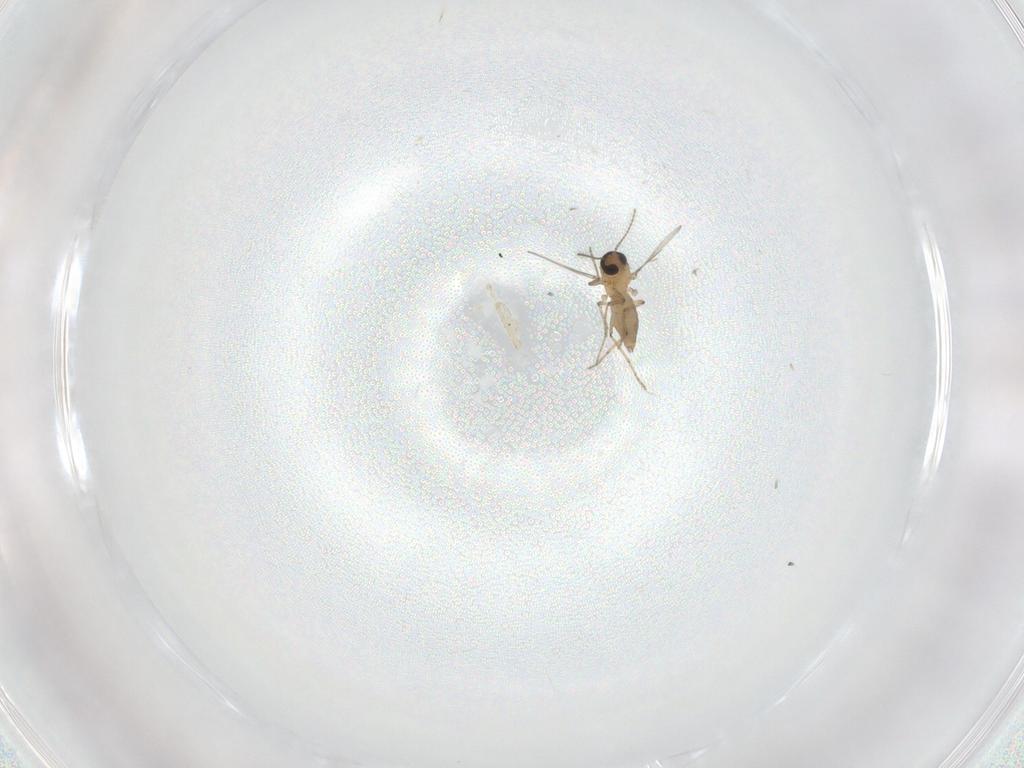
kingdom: Animalia
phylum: Arthropoda
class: Insecta
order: Diptera
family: Ceratopogonidae
